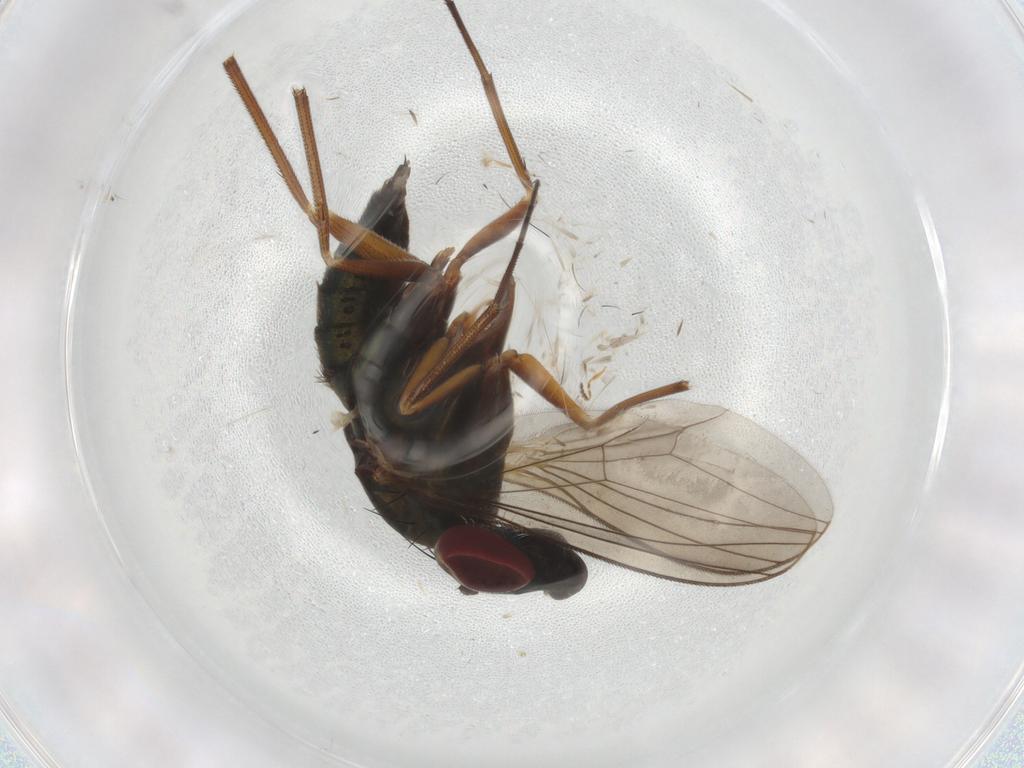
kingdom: Animalia
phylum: Arthropoda
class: Insecta
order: Diptera
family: Dolichopodidae
